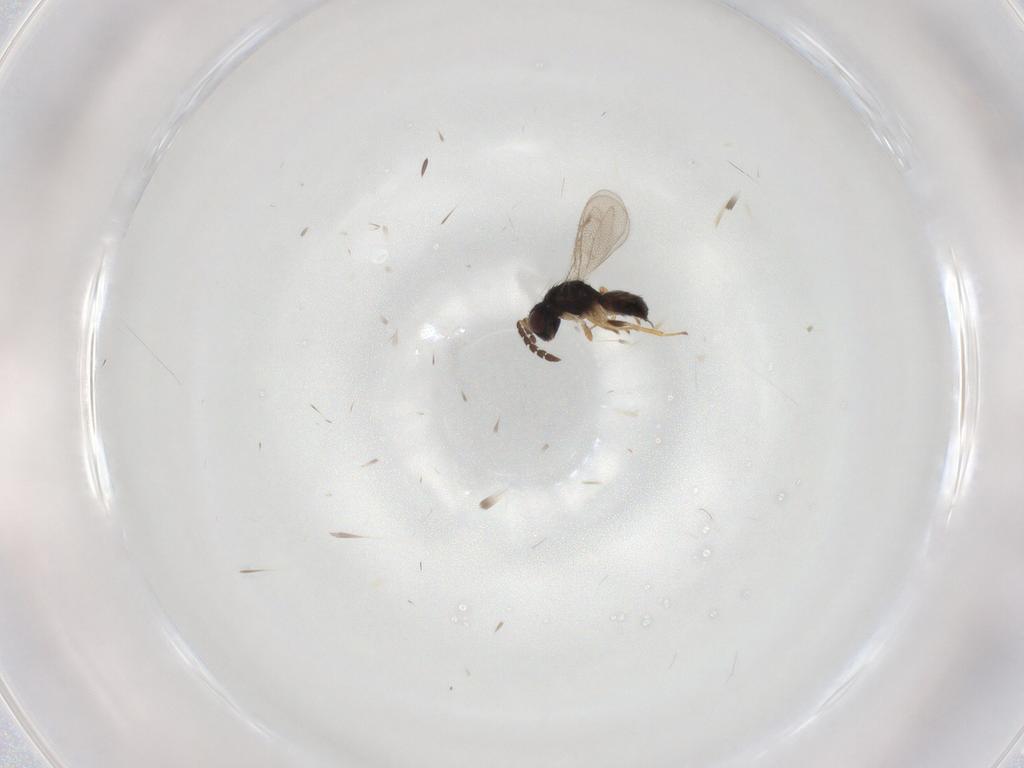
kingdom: Animalia
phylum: Arthropoda
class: Insecta
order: Hymenoptera
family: Eulophidae
